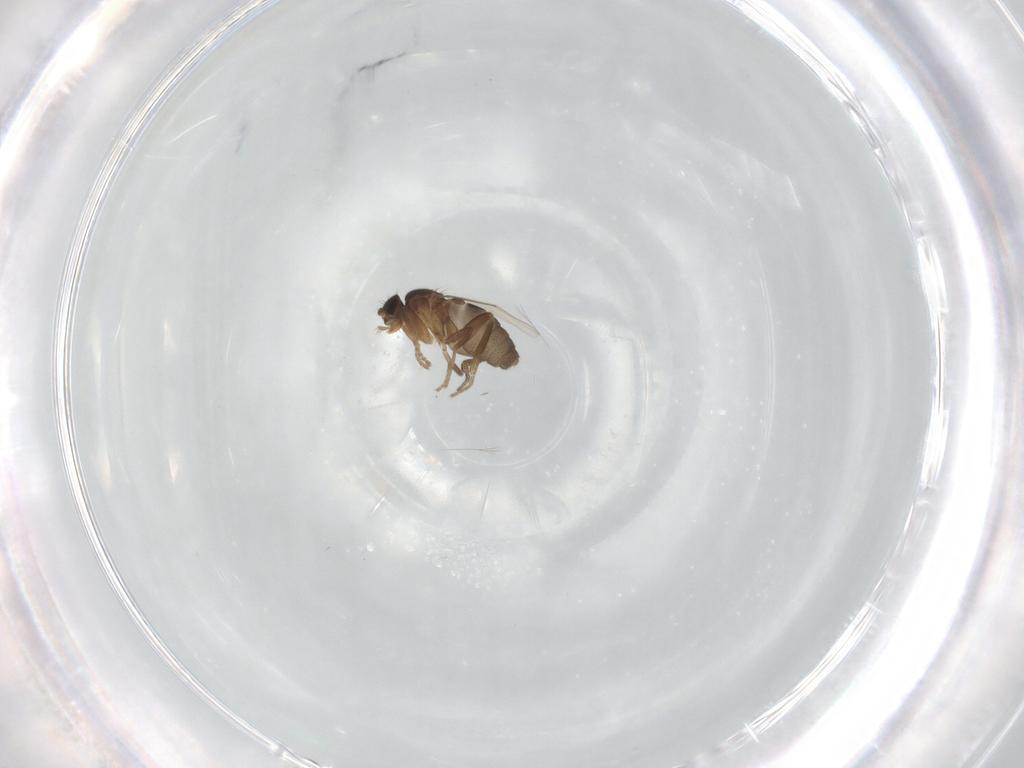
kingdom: Animalia
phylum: Arthropoda
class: Insecta
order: Diptera
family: Phoridae
